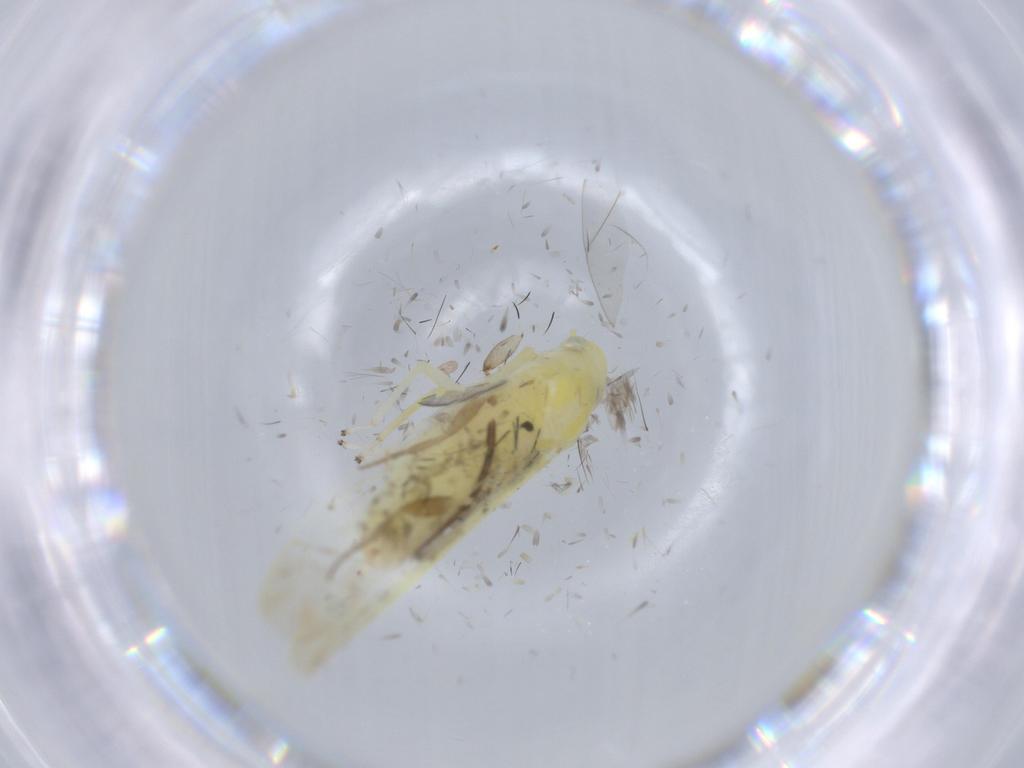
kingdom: Animalia
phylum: Arthropoda
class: Insecta
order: Hemiptera
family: Cicadellidae
